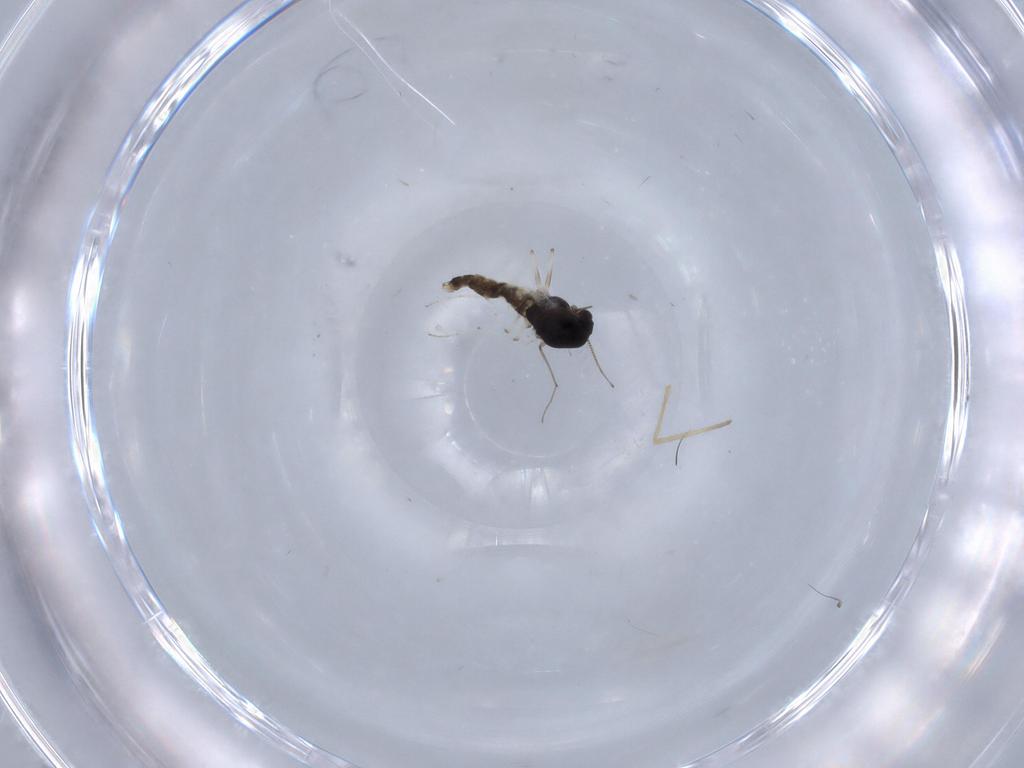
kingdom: Animalia
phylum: Arthropoda
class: Insecta
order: Diptera
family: Chironomidae
